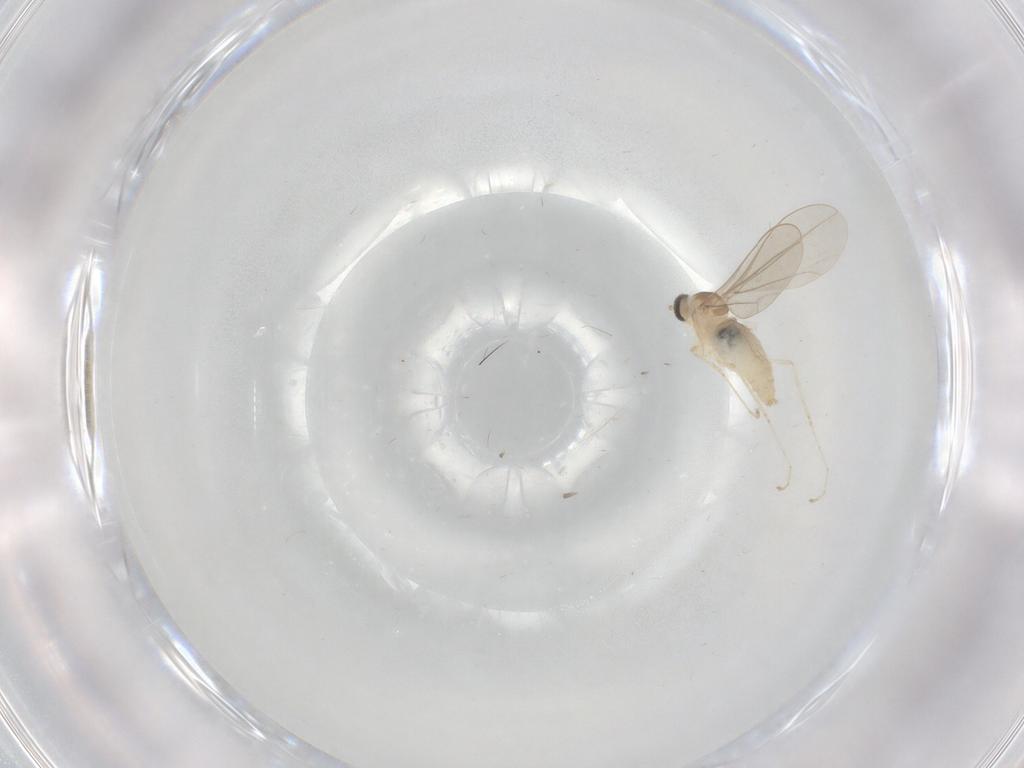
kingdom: Animalia
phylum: Arthropoda
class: Insecta
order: Diptera
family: Cecidomyiidae
